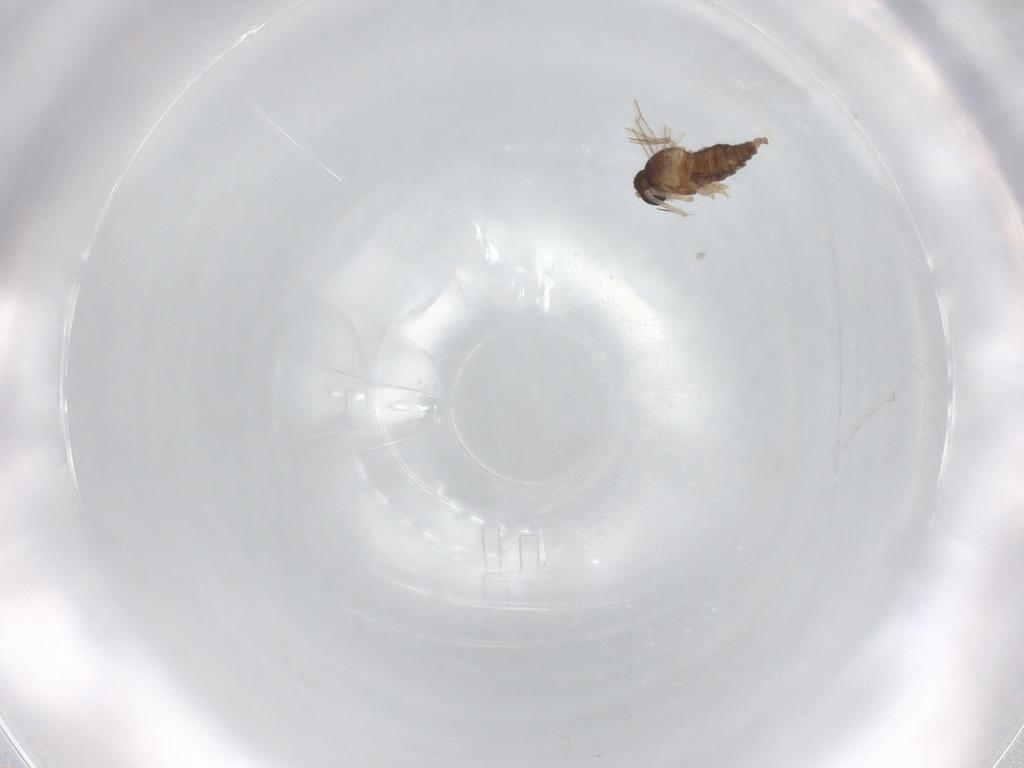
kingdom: Animalia
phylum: Arthropoda
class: Insecta
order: Diptera
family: Cecidomyiidae
